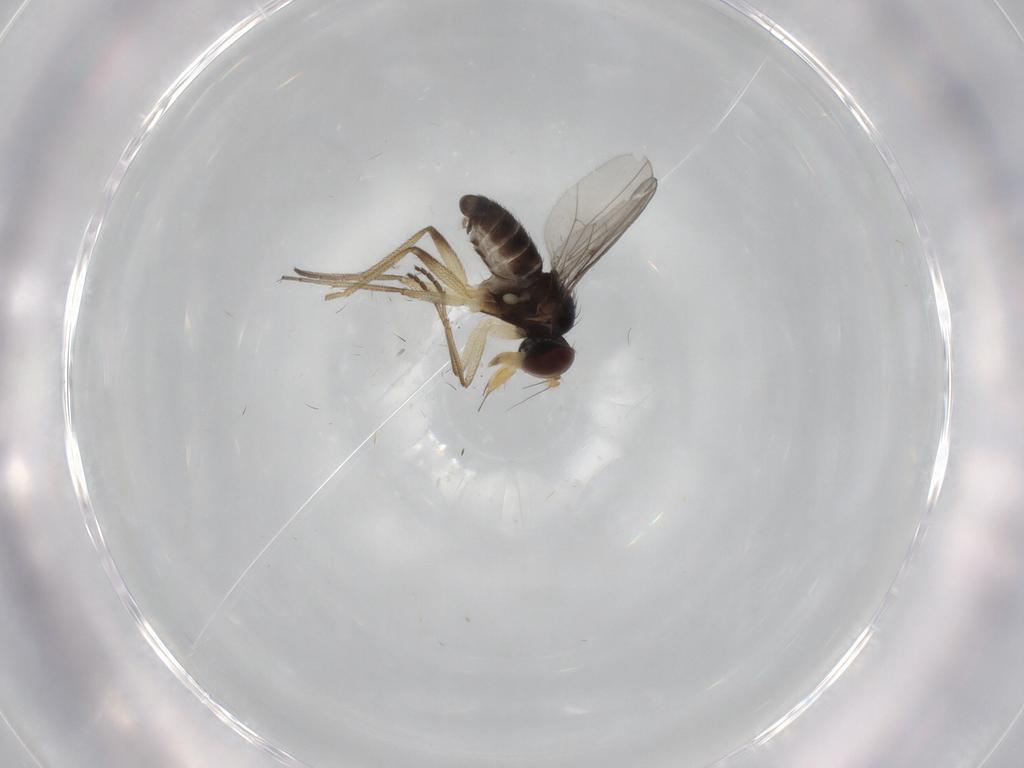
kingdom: Animalia
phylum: Arthropoda
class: Insecta
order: Diptera
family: Dolichopodidae
